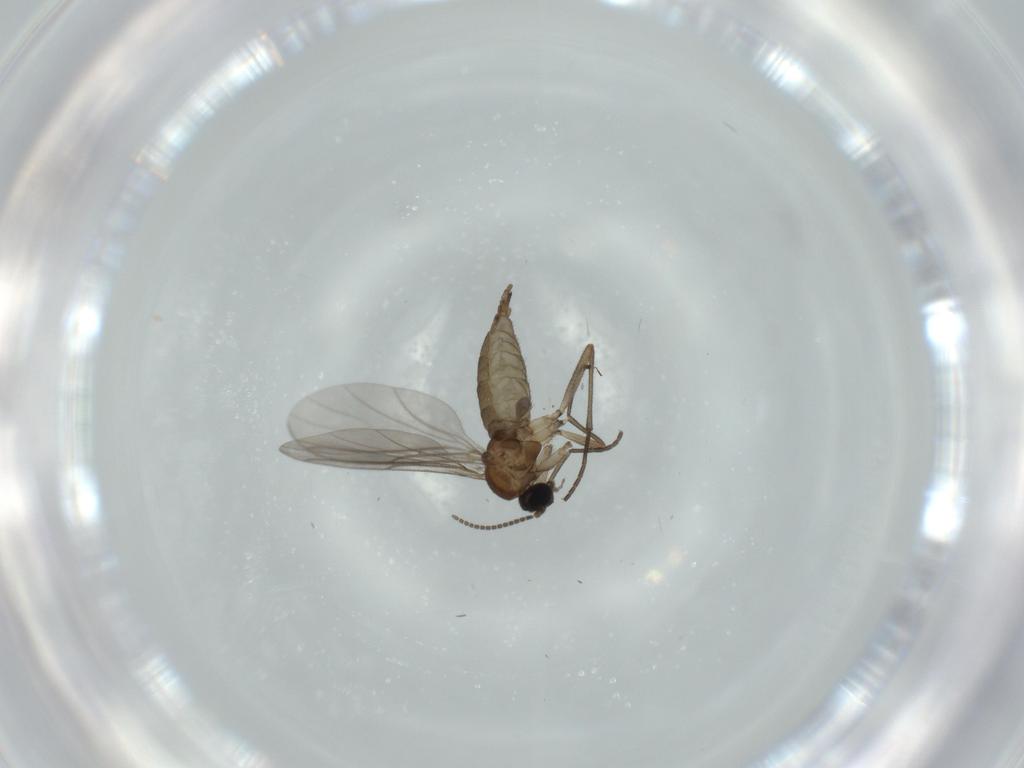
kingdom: Animalia
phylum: Arthropoda
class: Insecta
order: Diptera
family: Sciaridae
